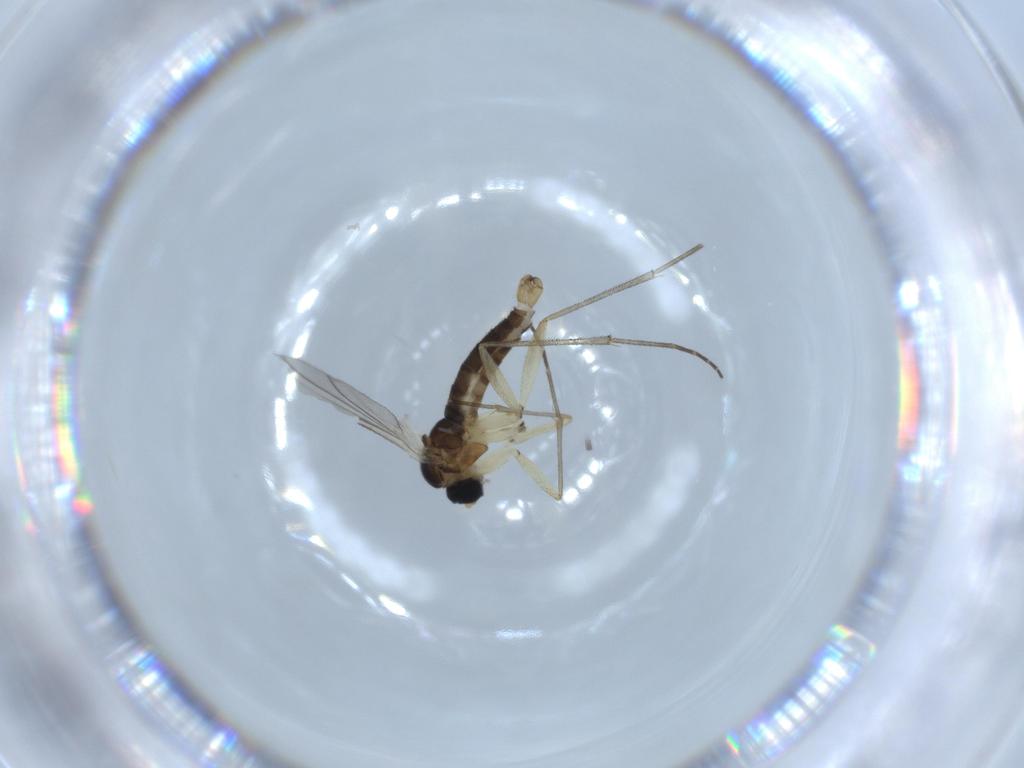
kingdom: Animalia
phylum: Arthropoda
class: Insecta
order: Diptera
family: Sciaridae
